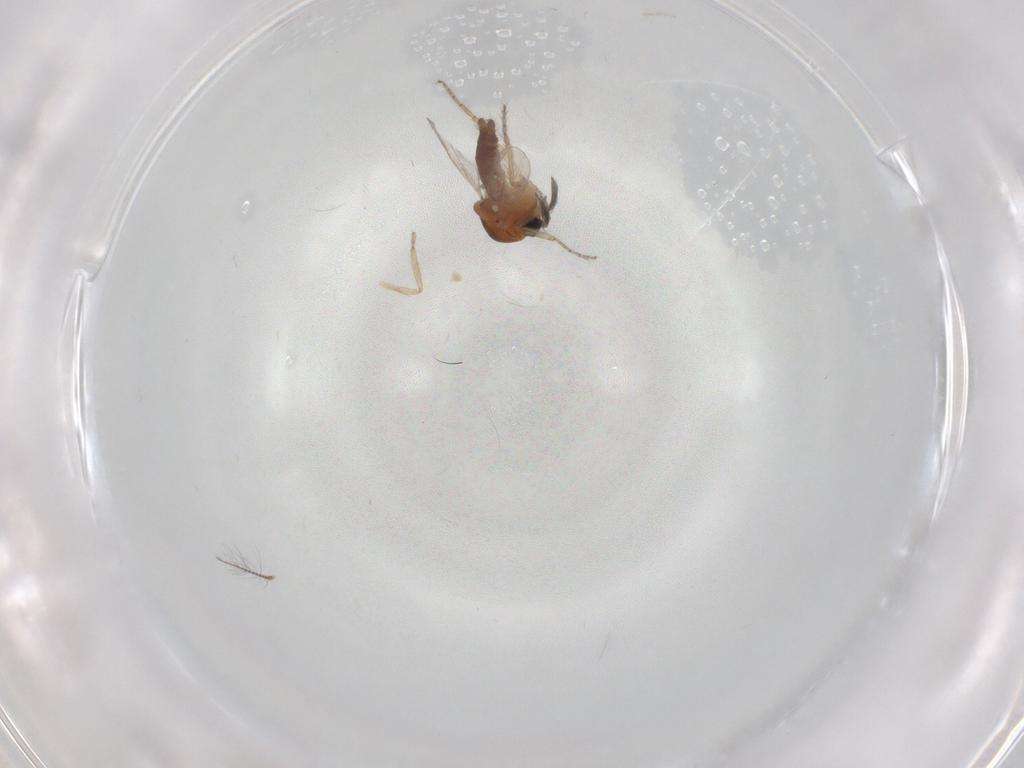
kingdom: Animalia
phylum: Arthropoda
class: Insecta
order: Diptera
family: Ceratopogonidae
